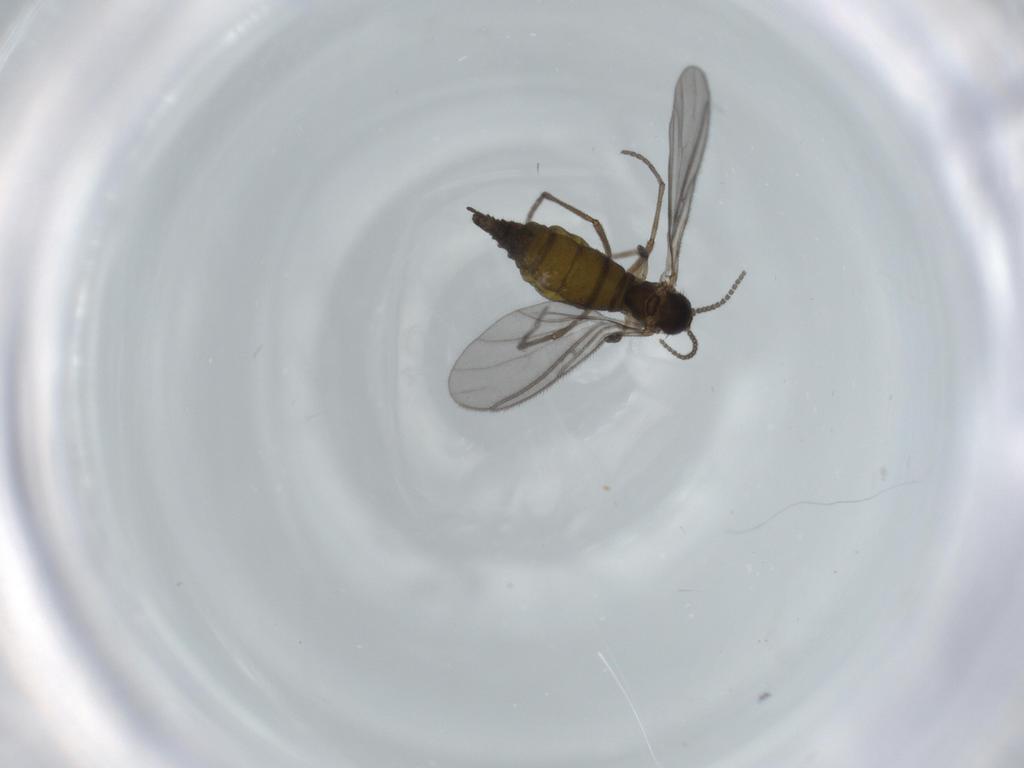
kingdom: Animalia
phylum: Arthropoda
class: Insecta
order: Diptera
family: Sciaridae
